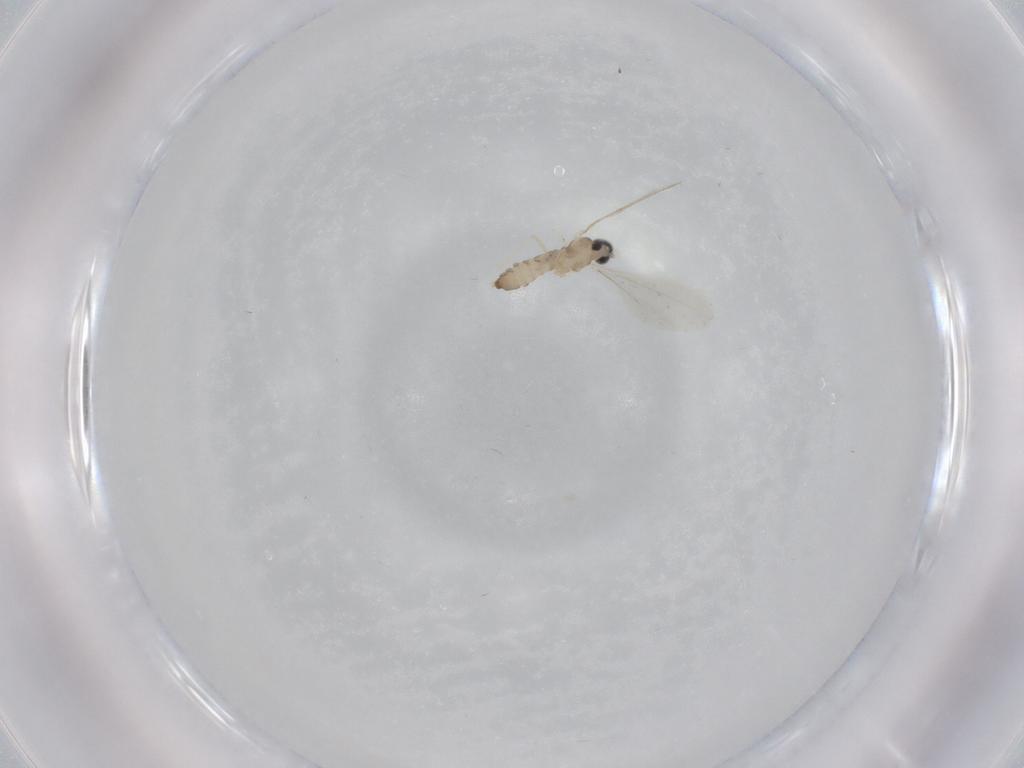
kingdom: Animalia
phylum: Arthropoda
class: Insecta
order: Diptera
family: Cecidomyiidae
